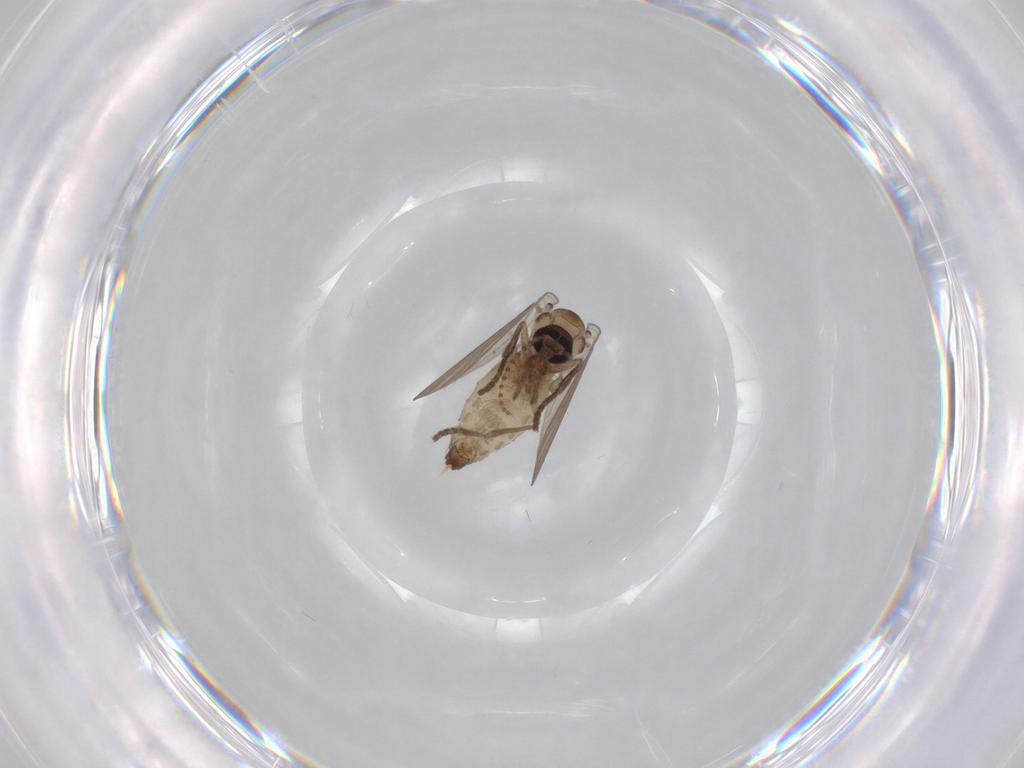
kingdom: Animalia
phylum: Arthropoda
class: Insecta
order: Diptera
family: Psychodidae
